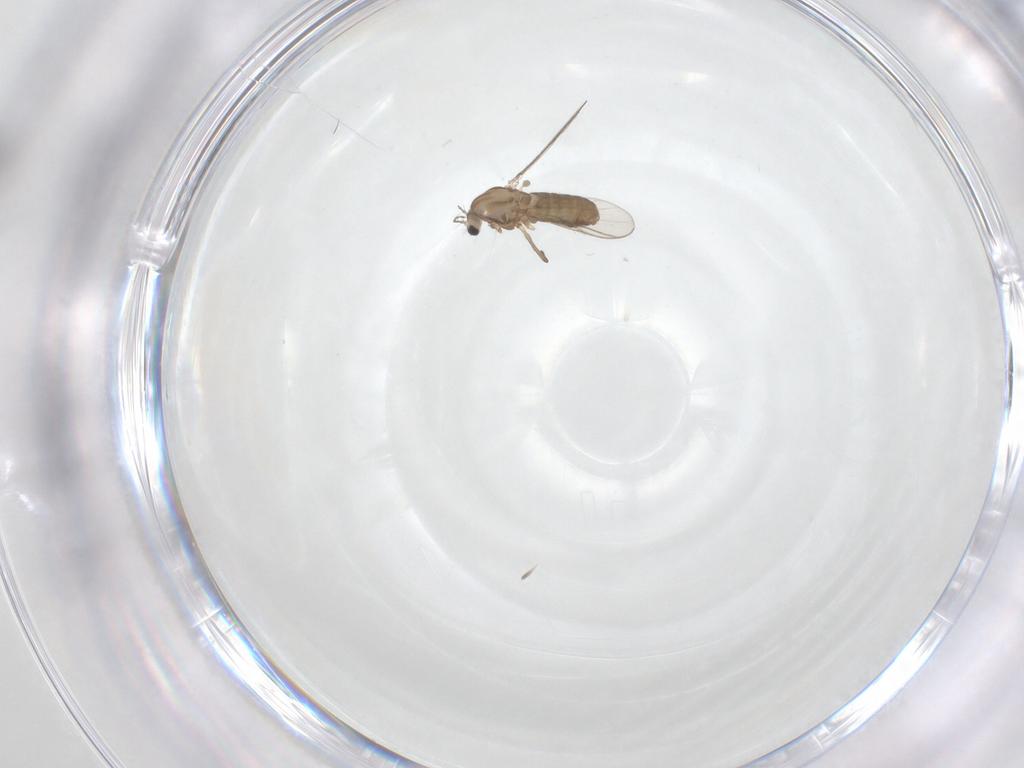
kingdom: Animalia
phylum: Arthropoda
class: Insecta
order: Diptera
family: Chironomidae
